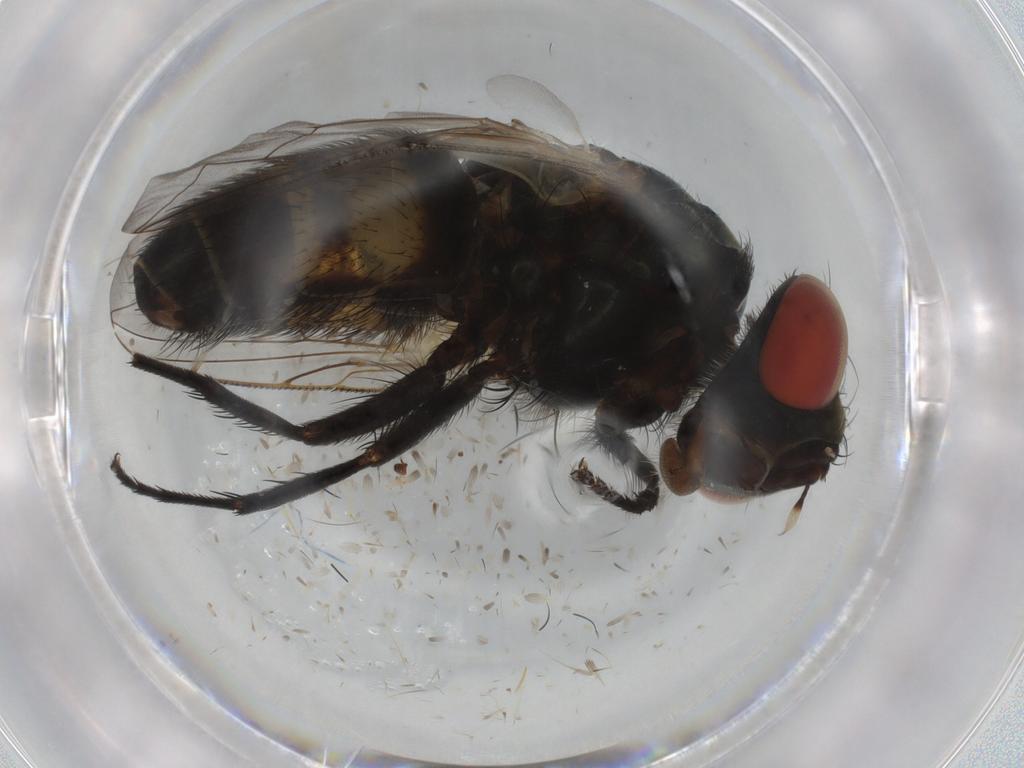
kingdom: Animalia
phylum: Arthropoda
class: Insecta
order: Diptera
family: Sarcophagidae
